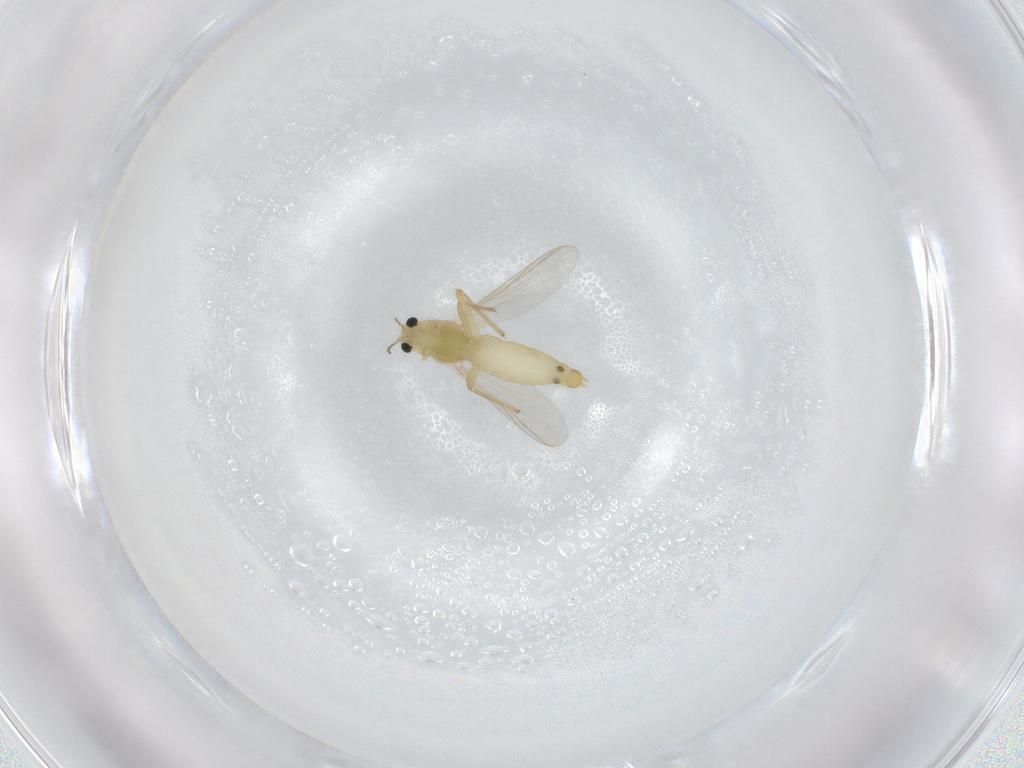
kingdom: Animalia
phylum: Arthropoda
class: Insecta
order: Diptera
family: Chironomidae
